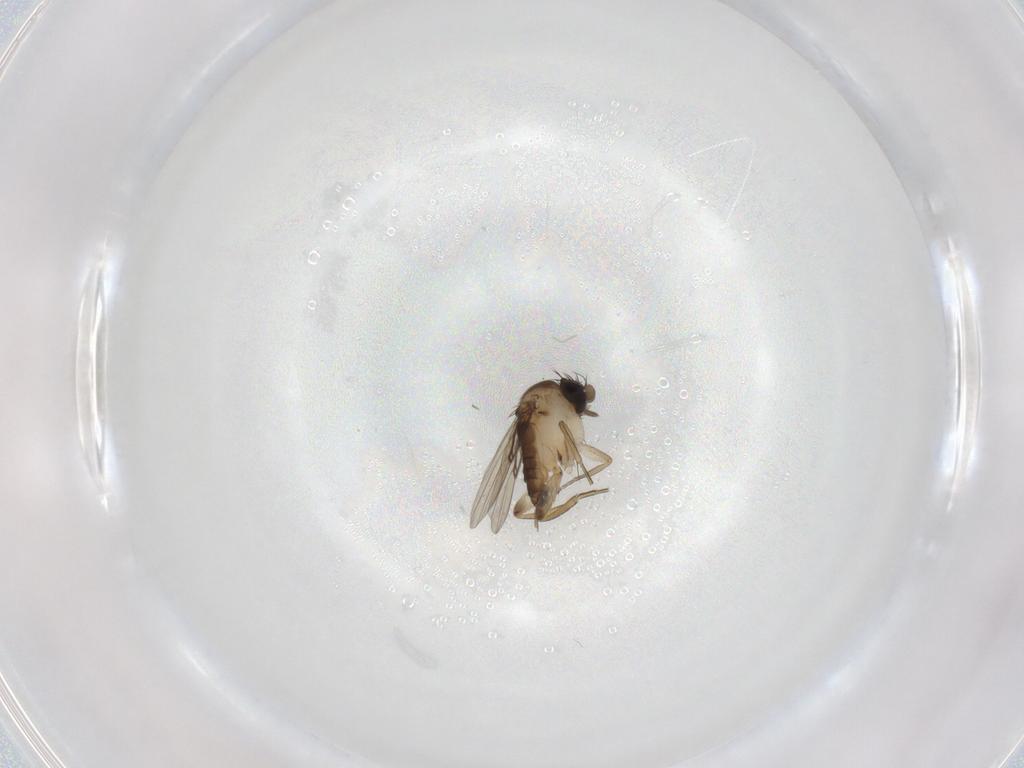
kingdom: Animalia
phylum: Arthropoda
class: Insecta
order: Diptera
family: Phoridae
